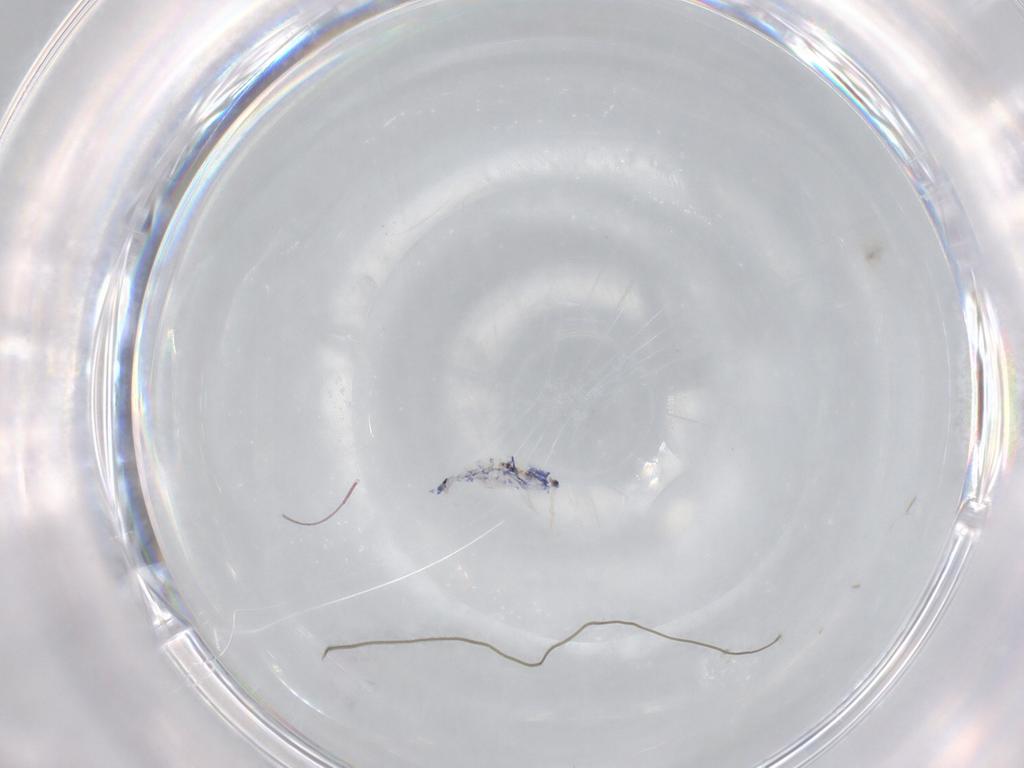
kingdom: Animalia
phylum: Arthropoda
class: Collembola
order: Entomobryomorpha
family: Entomobryidae
